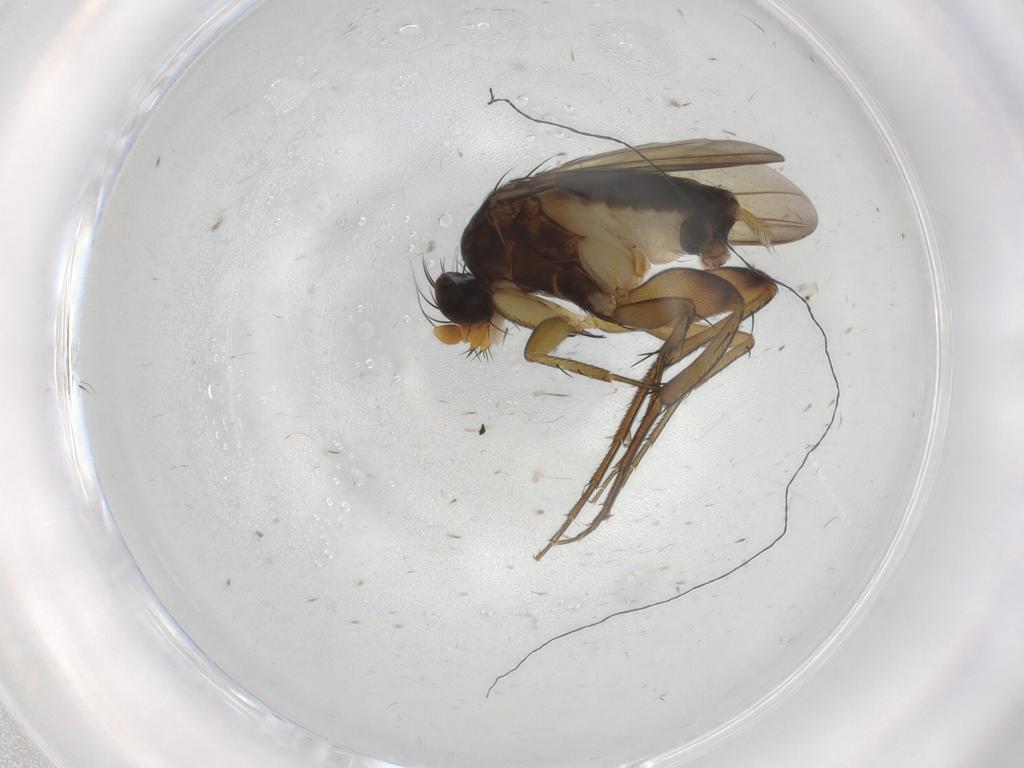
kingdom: Animalia
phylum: Arthropoda
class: Insecta
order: Diptera
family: Phoridae
